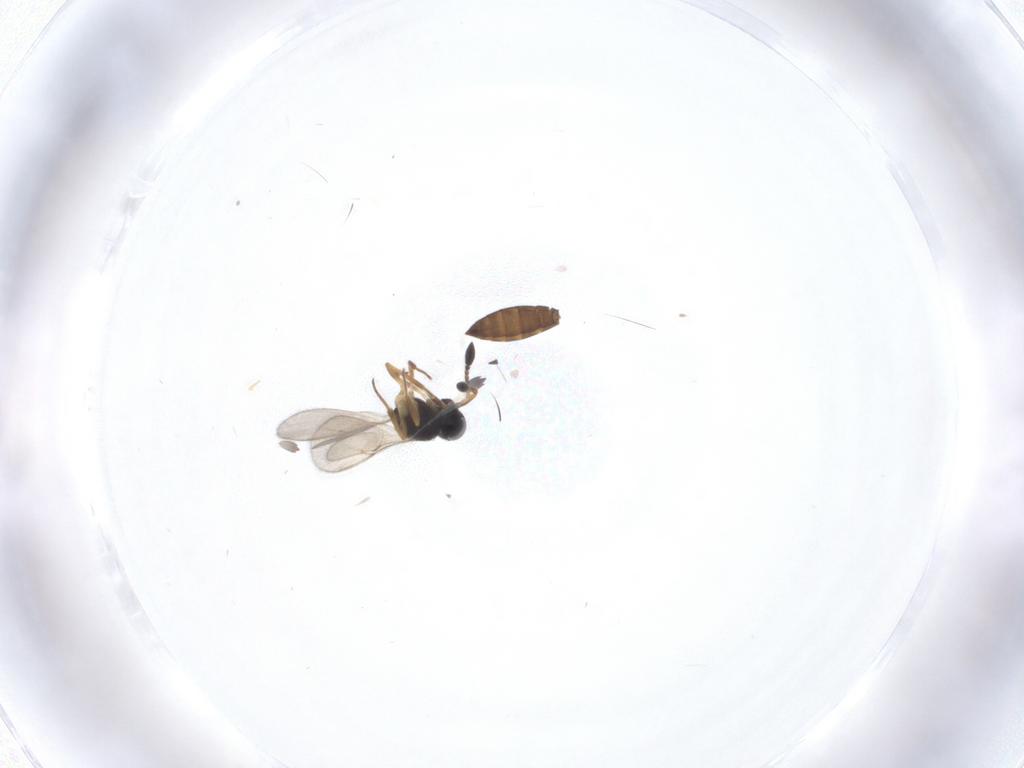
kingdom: Animalia
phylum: Arthropoda
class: Insecta
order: Hymenoptera
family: Scelionidae
